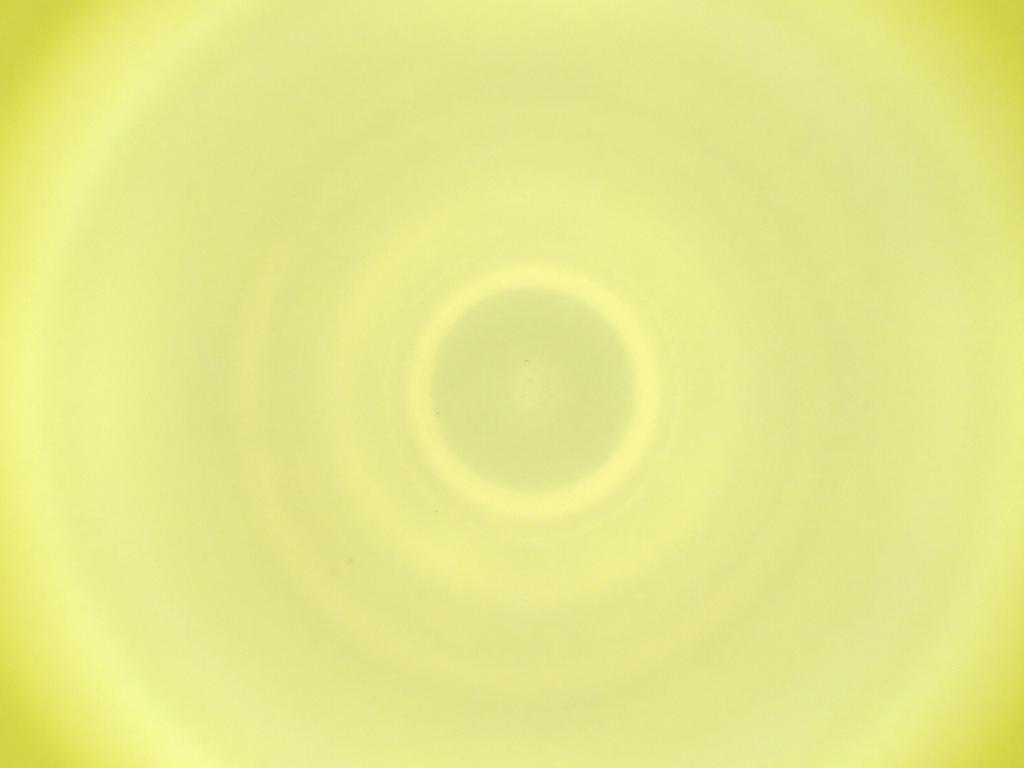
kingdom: Animalia
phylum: Arthropoda
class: Insecta
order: Diptera
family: Cecidomyiidae
